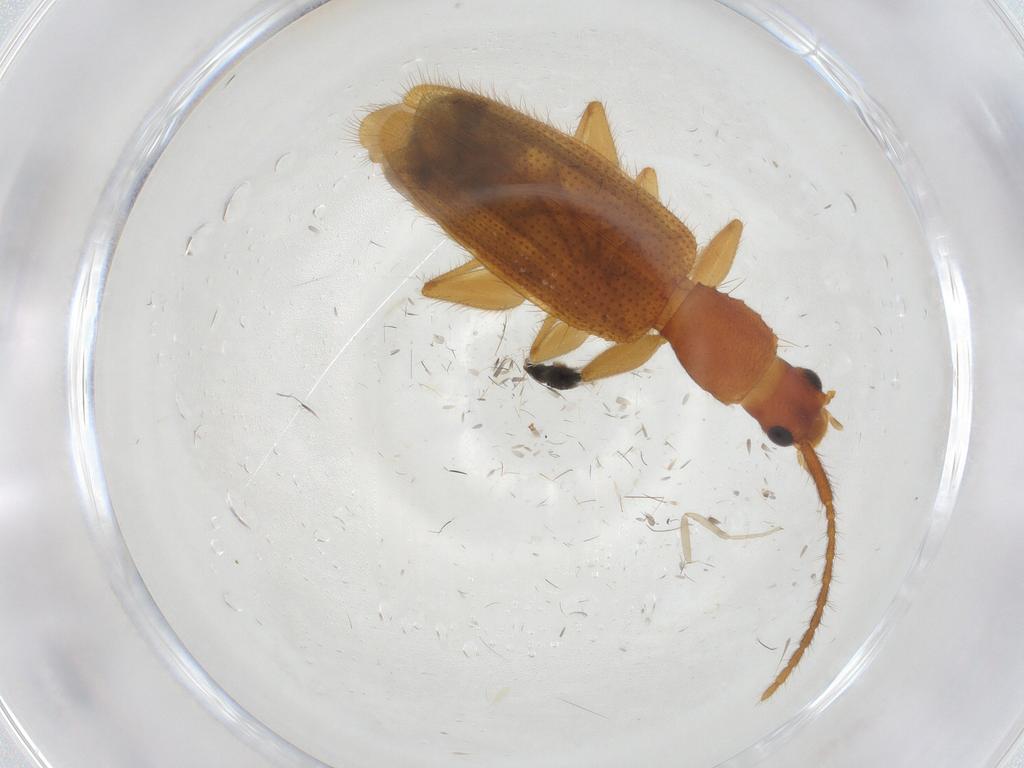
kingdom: Animalia
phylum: Arthropoda
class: Insecta
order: Coleoptera
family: Silvanidae
